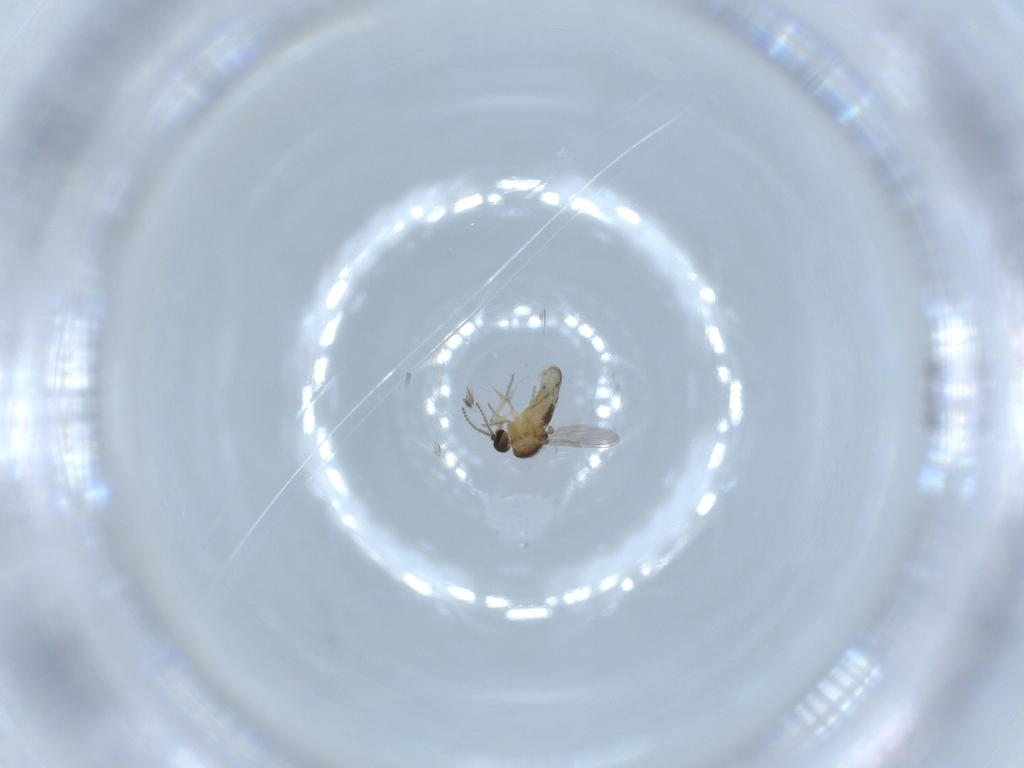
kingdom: Animalia
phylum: Arthropoda
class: Insecta
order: Diptera
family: Ceratopogonidae
